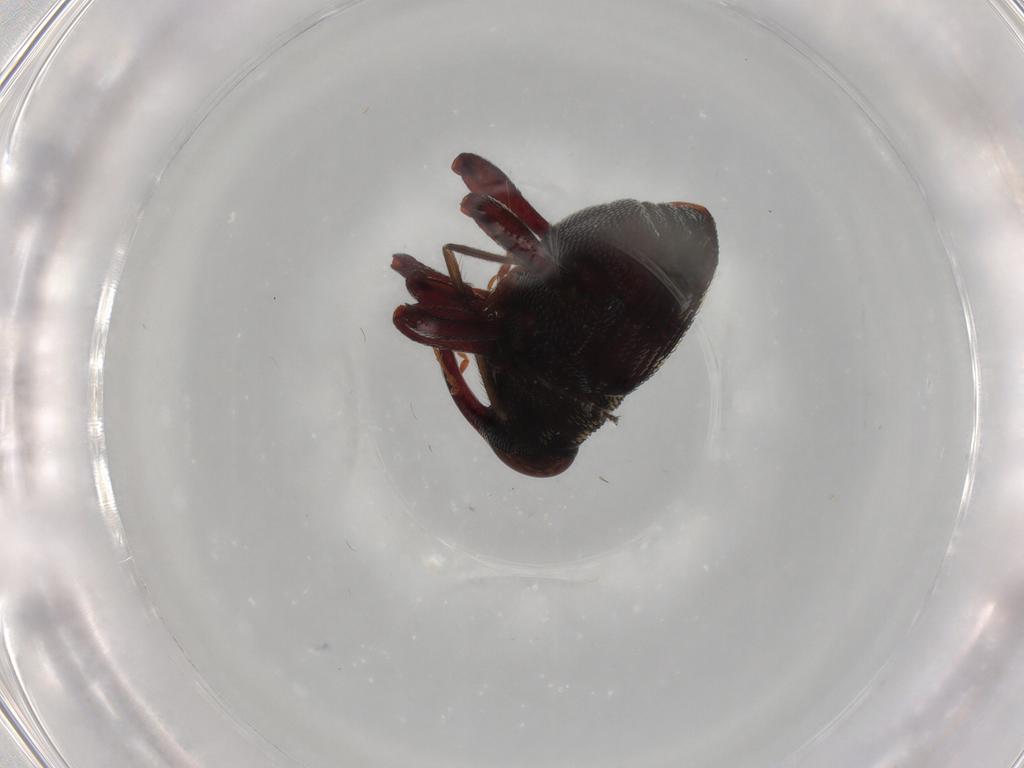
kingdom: Animalia
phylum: Arthropoda
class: Insecta
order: Coleoptera
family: Curculionidae
